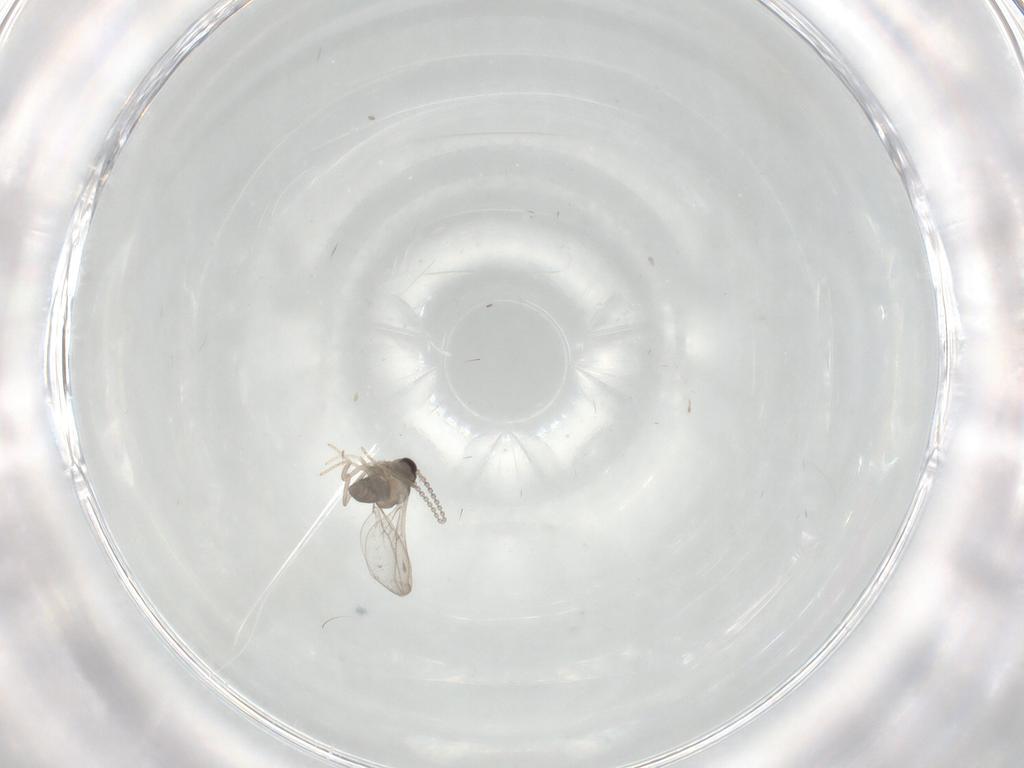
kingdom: Animalia
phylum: Arthropoda
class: Insecta
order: Diptera
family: Cecidomyiidae
